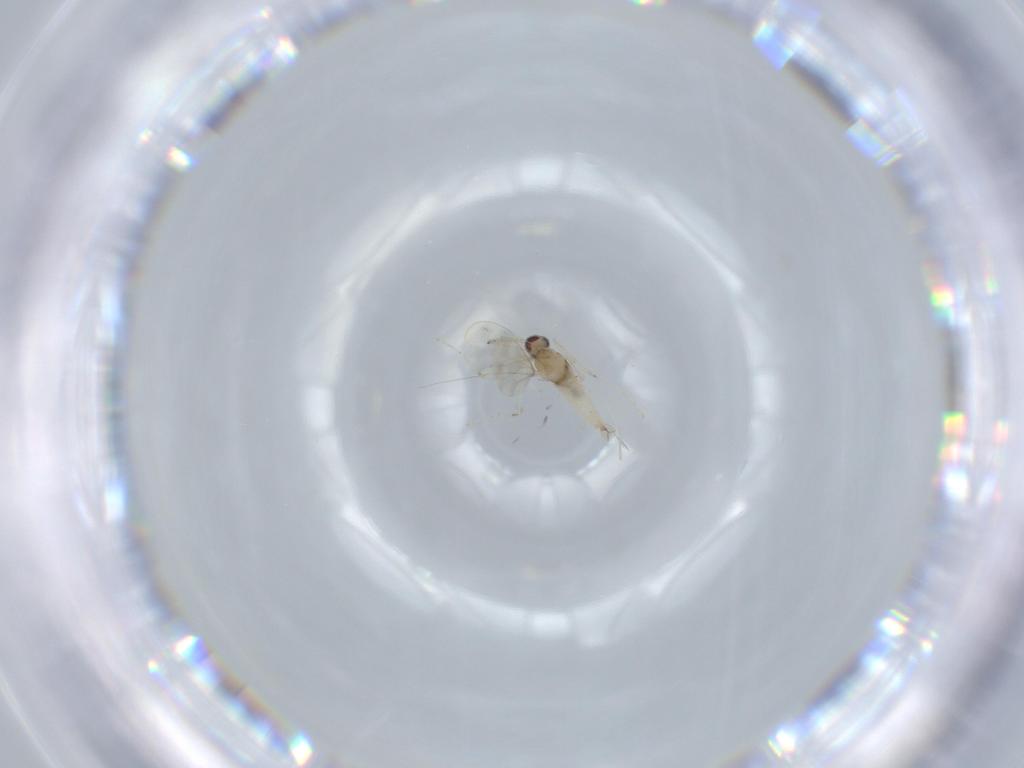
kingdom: Animalia
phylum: Arthropoda
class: Insecta
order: Diptera
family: Cecidomyiidae
